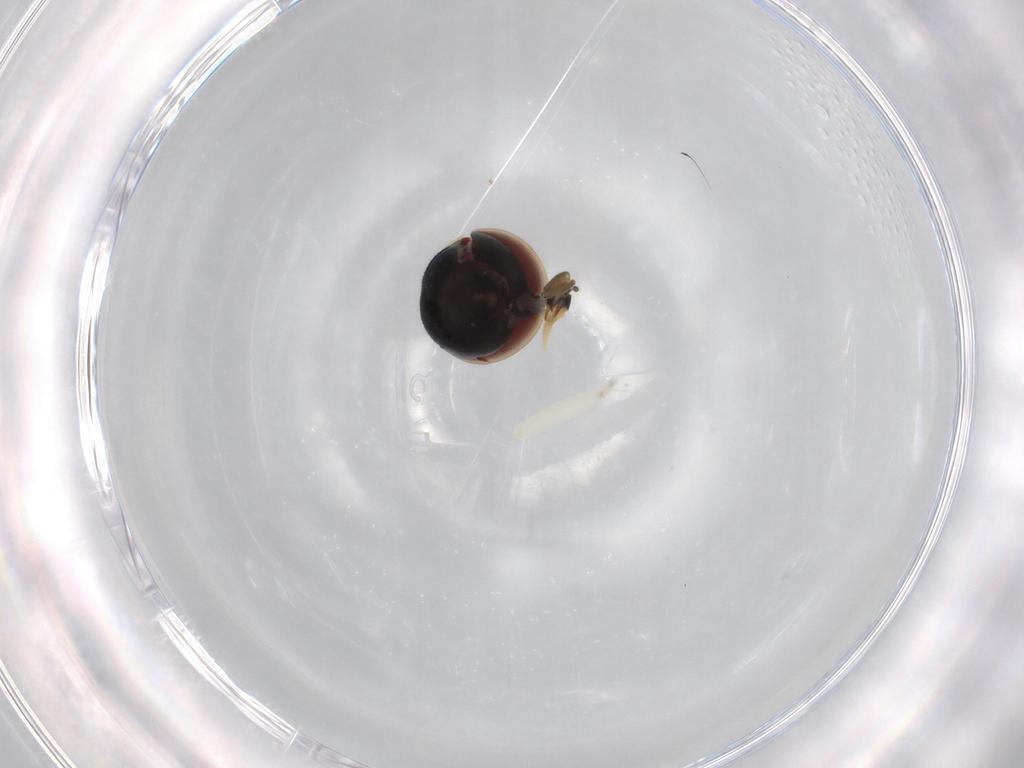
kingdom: Animalia
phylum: Arthropoda
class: Insecta
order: Diptera
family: Pipunculidae
